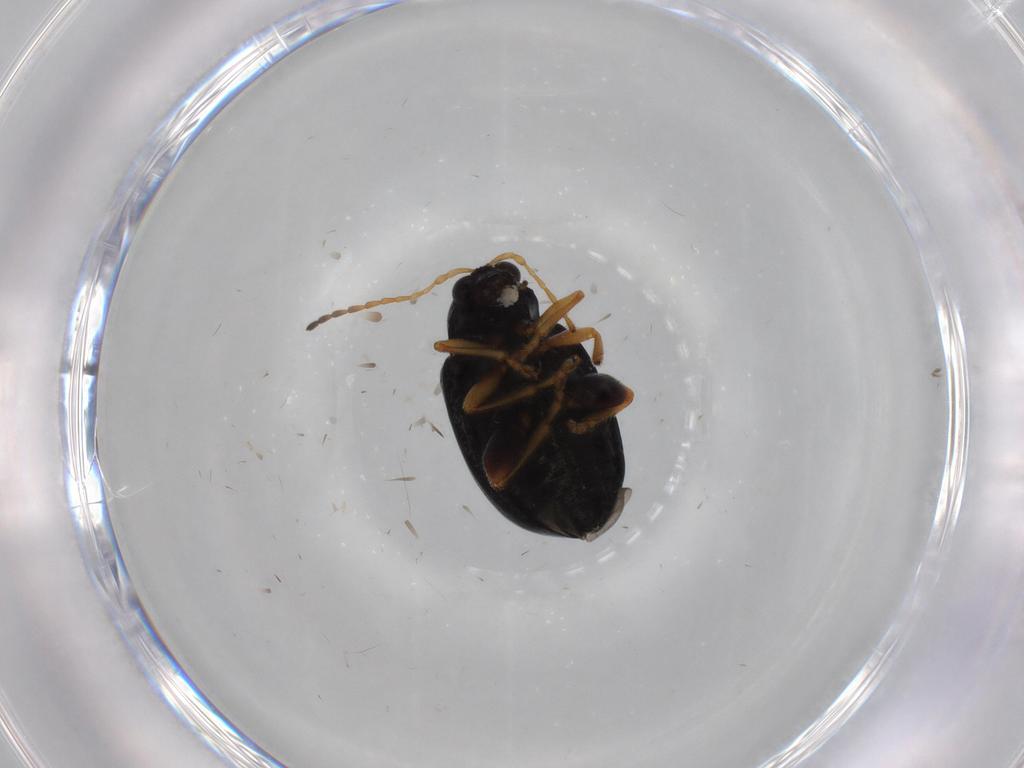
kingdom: Animalia
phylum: Arthropoda
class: Insecta
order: Coleoptera
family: Chrysomelidae
